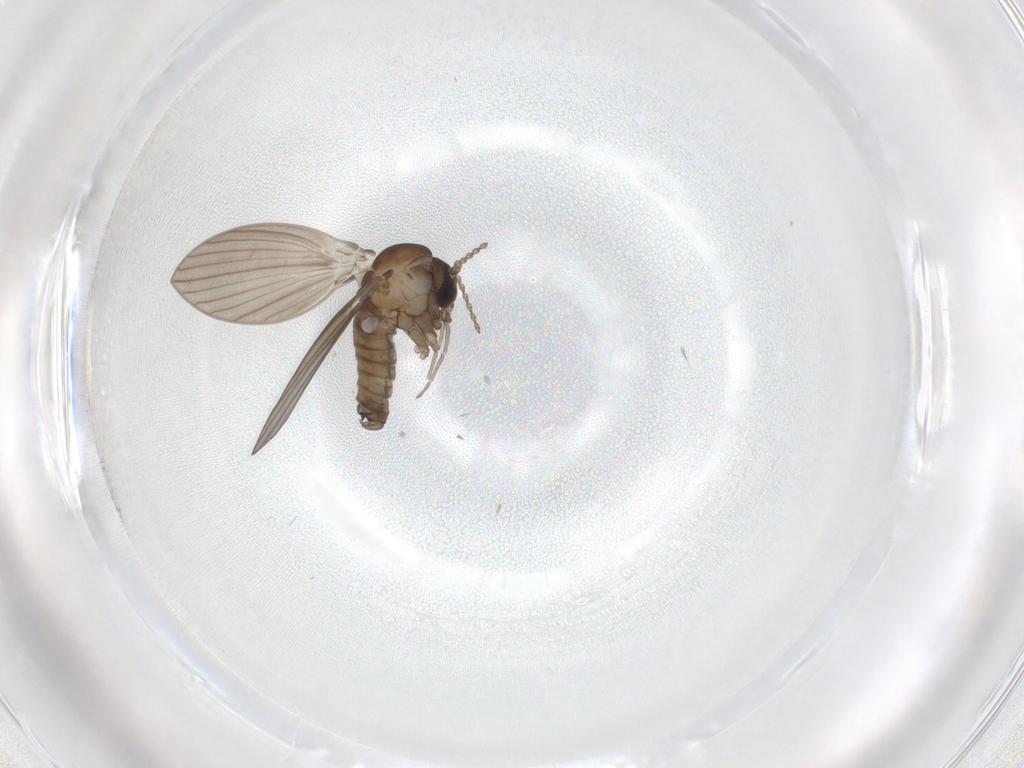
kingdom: Animalia
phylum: Arthropoda
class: Insecta
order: Diptera
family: Psychodidae
